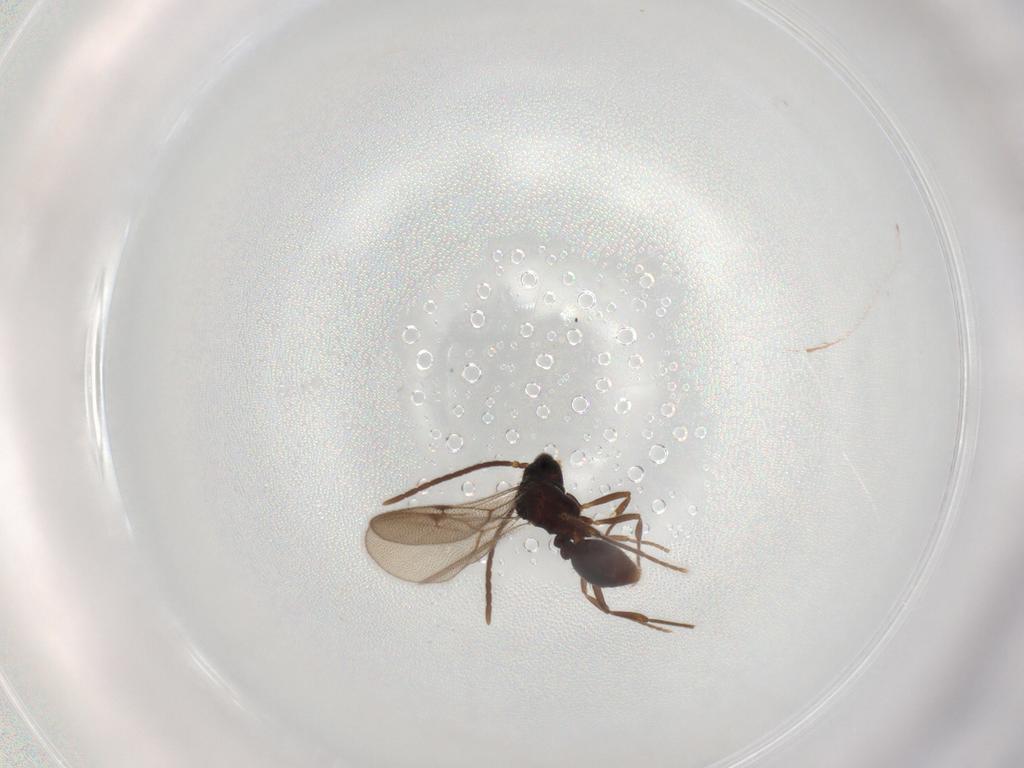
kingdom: Animalia
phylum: Arthropoda
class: Insecta
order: Hymenoptera
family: Formicidae
